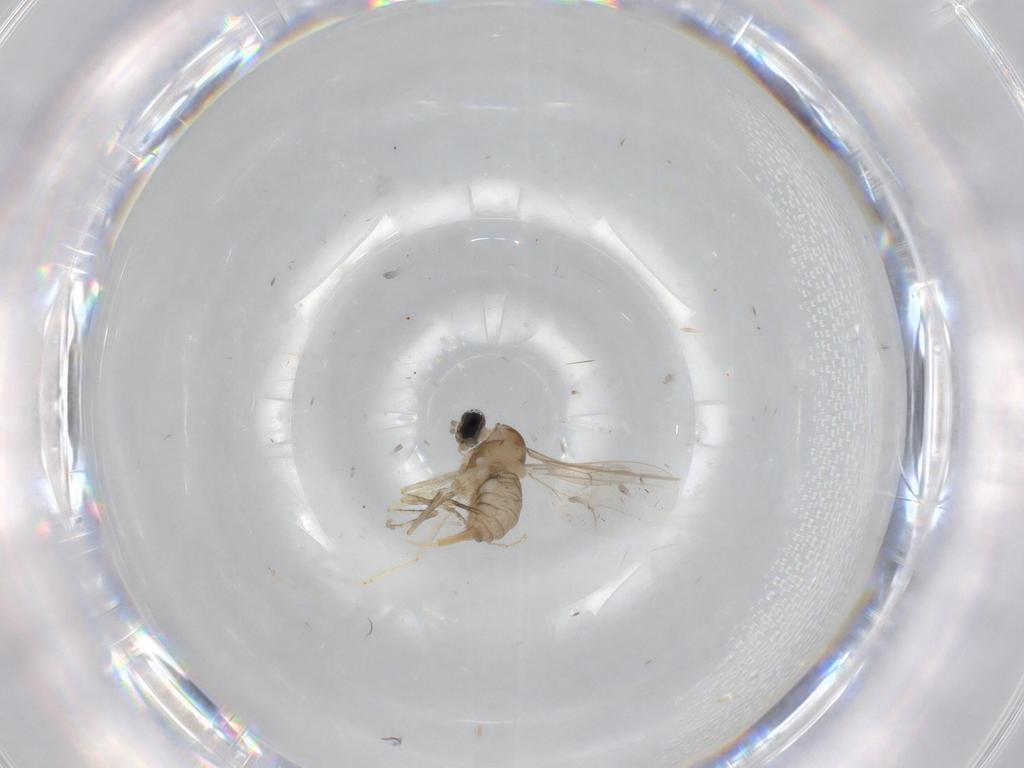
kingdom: Animalia
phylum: Arthropoda
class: Insecta
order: Diptera
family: Cecidomyiidae
